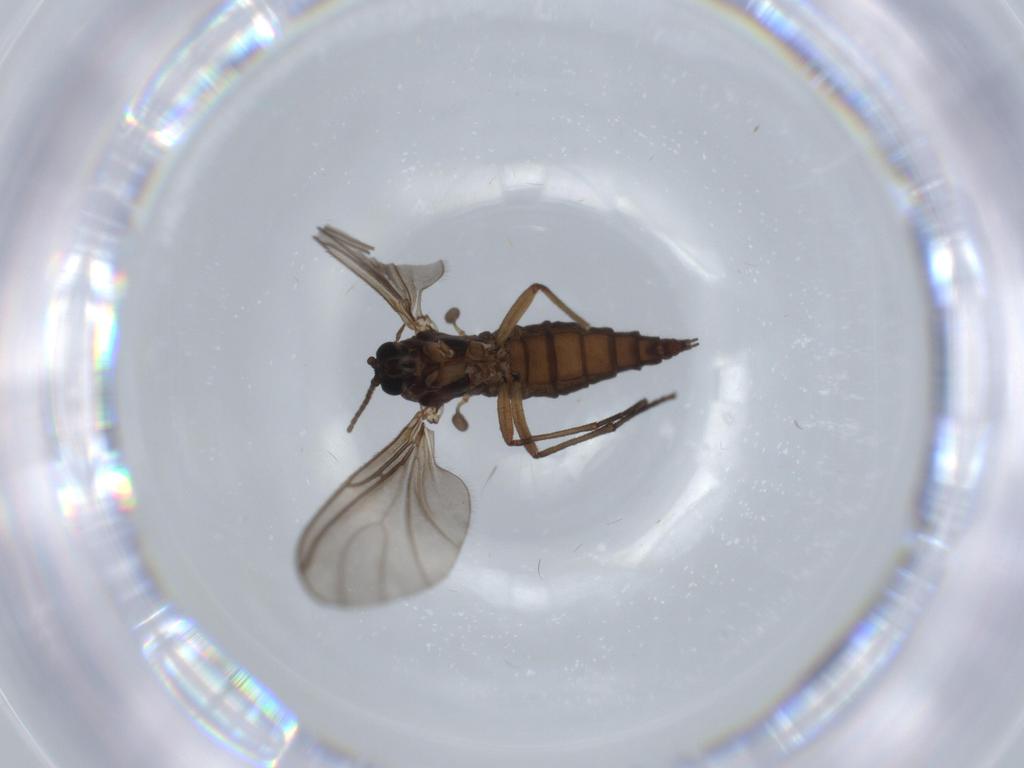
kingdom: Animalia
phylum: Arthropoda
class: Insecta
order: Diptera
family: Sciaridae
